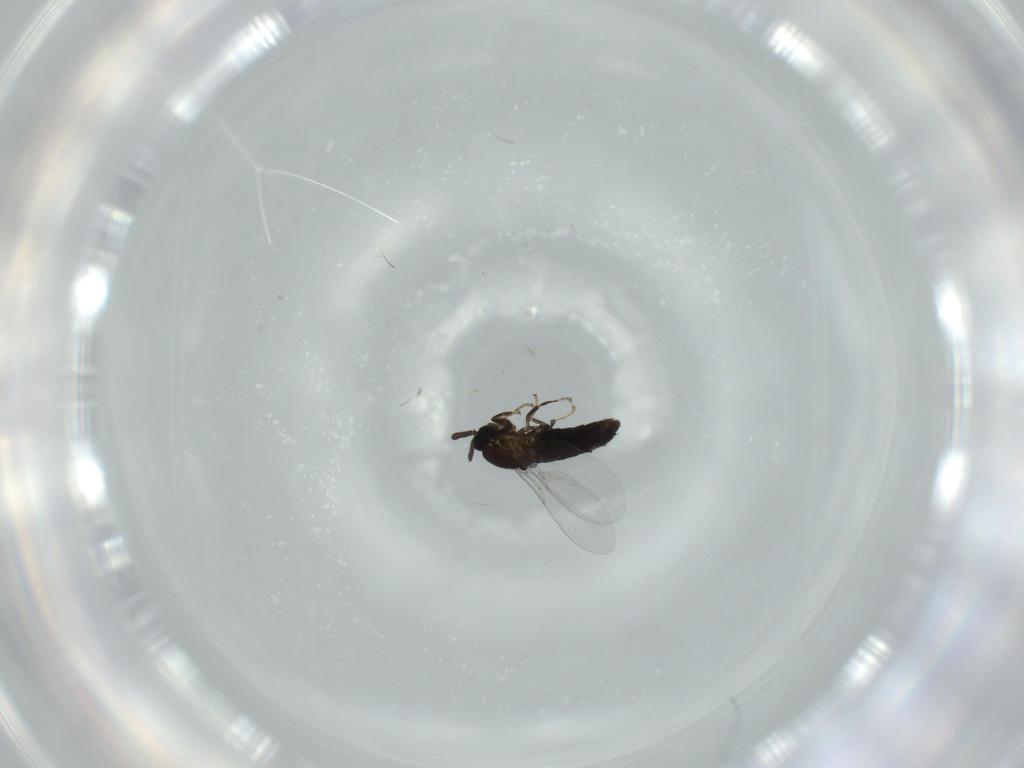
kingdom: Animalia
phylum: Arthropoda
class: Insecta
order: Diptera
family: Scatopsidae
